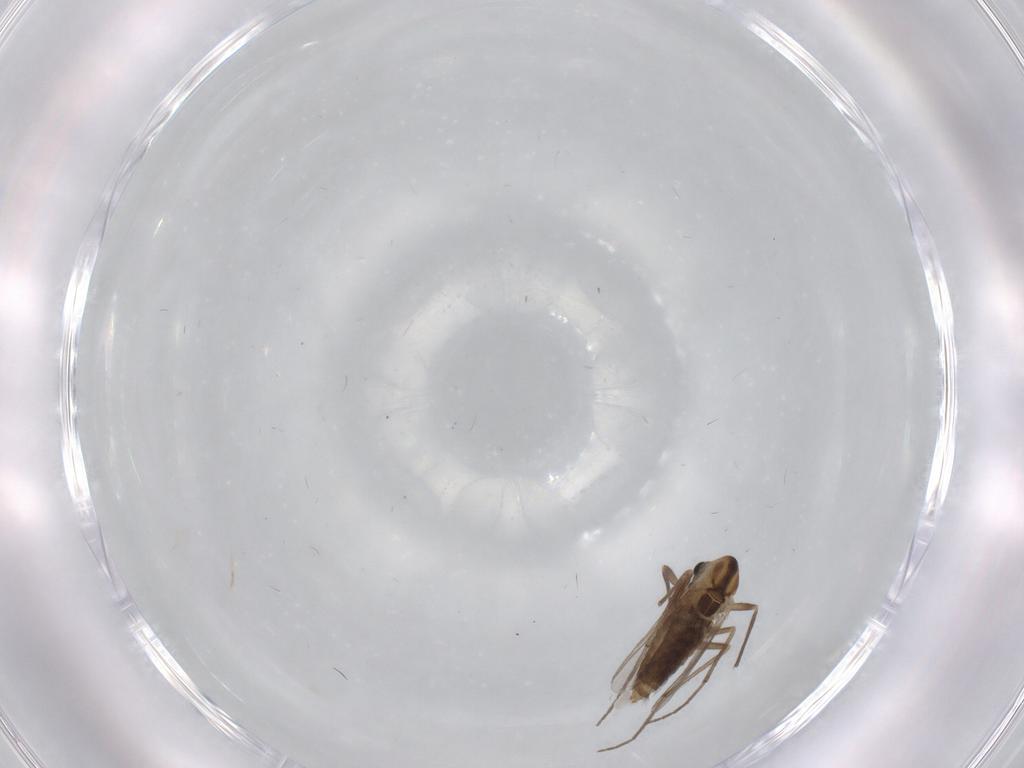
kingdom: Animalia
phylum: Arthropoda
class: Insecta
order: Diptera
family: Chironomidae
